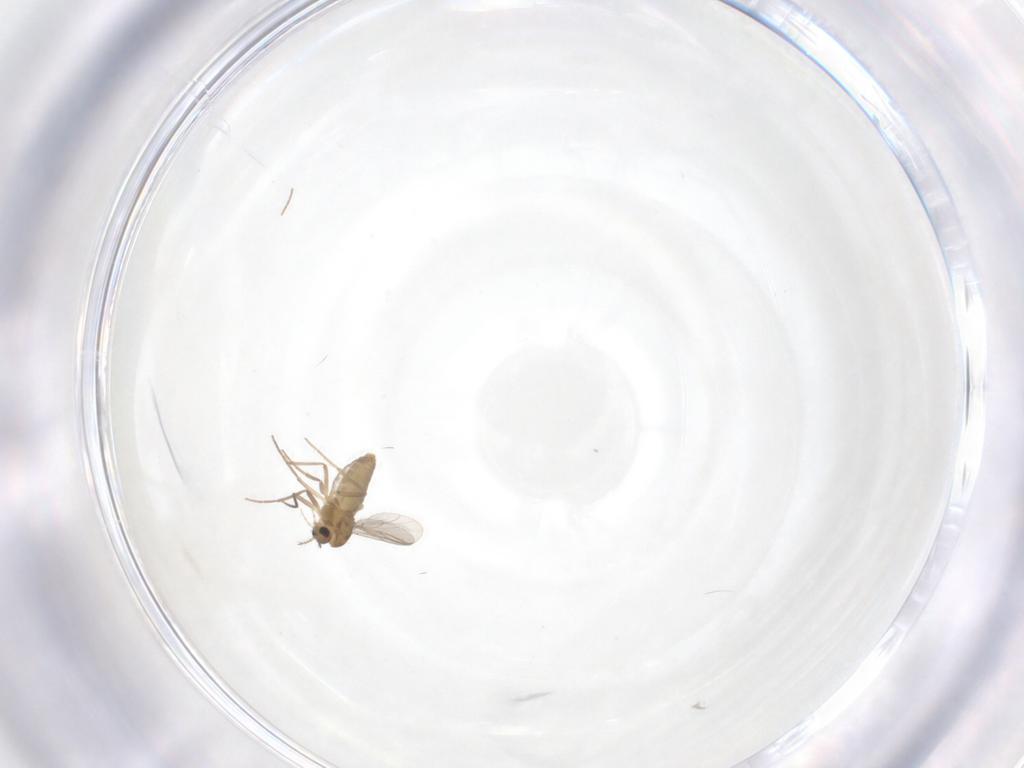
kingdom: Animalia
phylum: Arthropoda
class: Insecta
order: Diptera
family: Chironomidae
